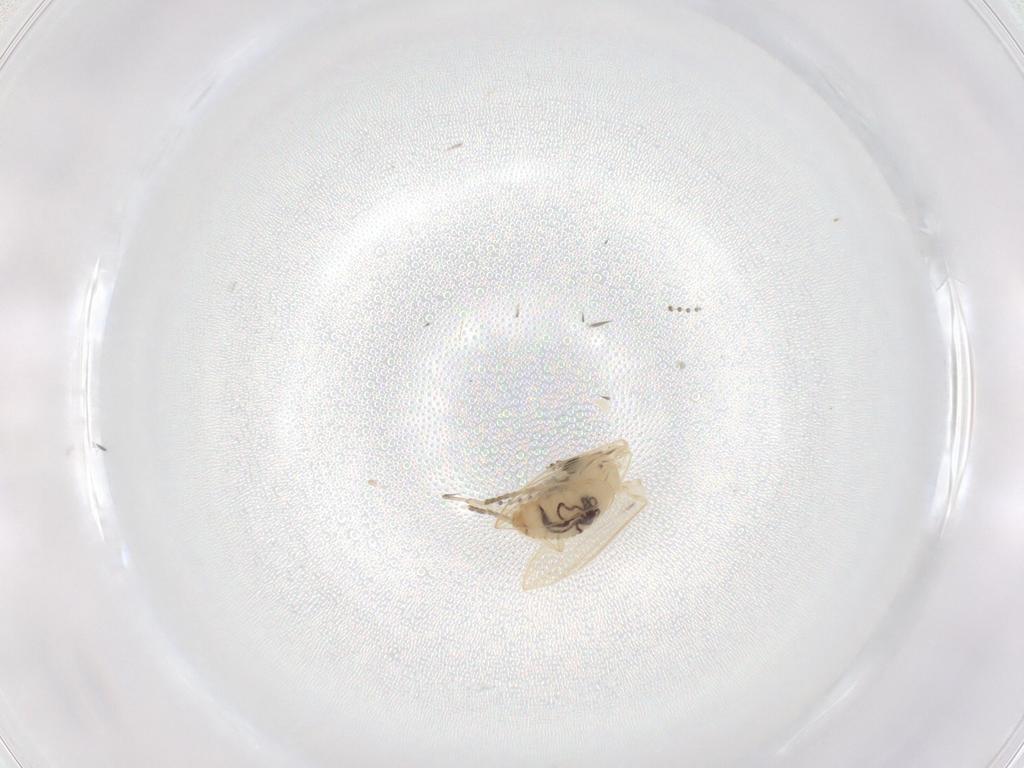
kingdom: Animalia
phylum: Arthropoda
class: Insecta
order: Diptera
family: Psychodidae
